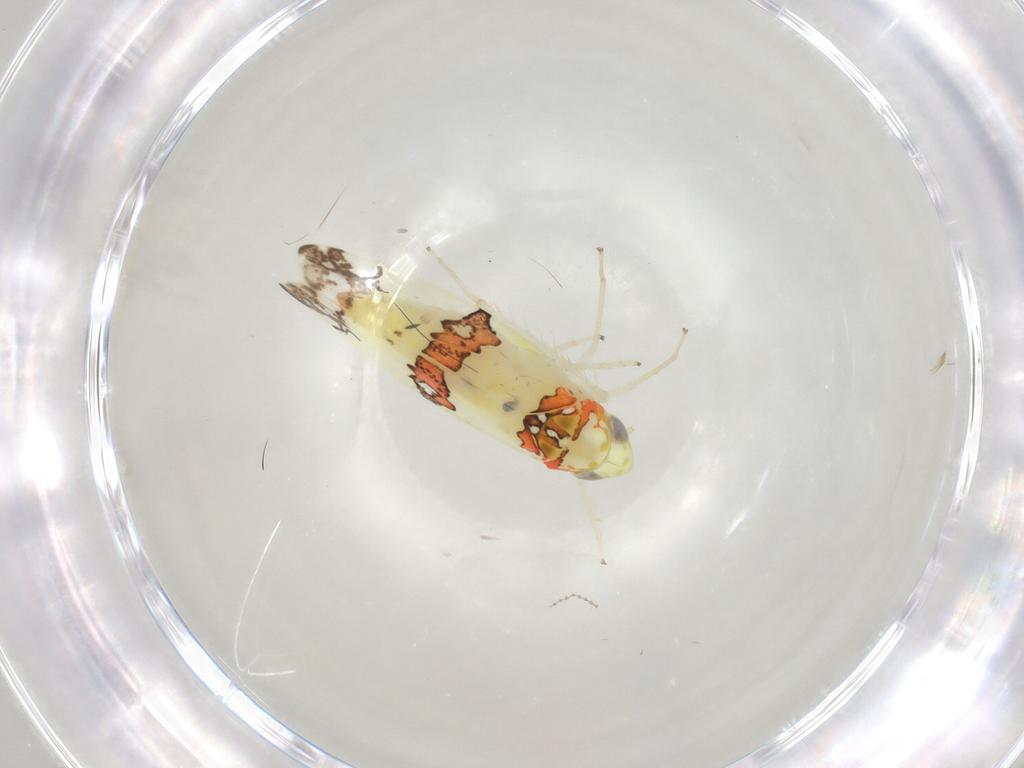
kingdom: Animalia
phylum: Arthropoda
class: Insecta
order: Hemiptera
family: Cicadellidae
